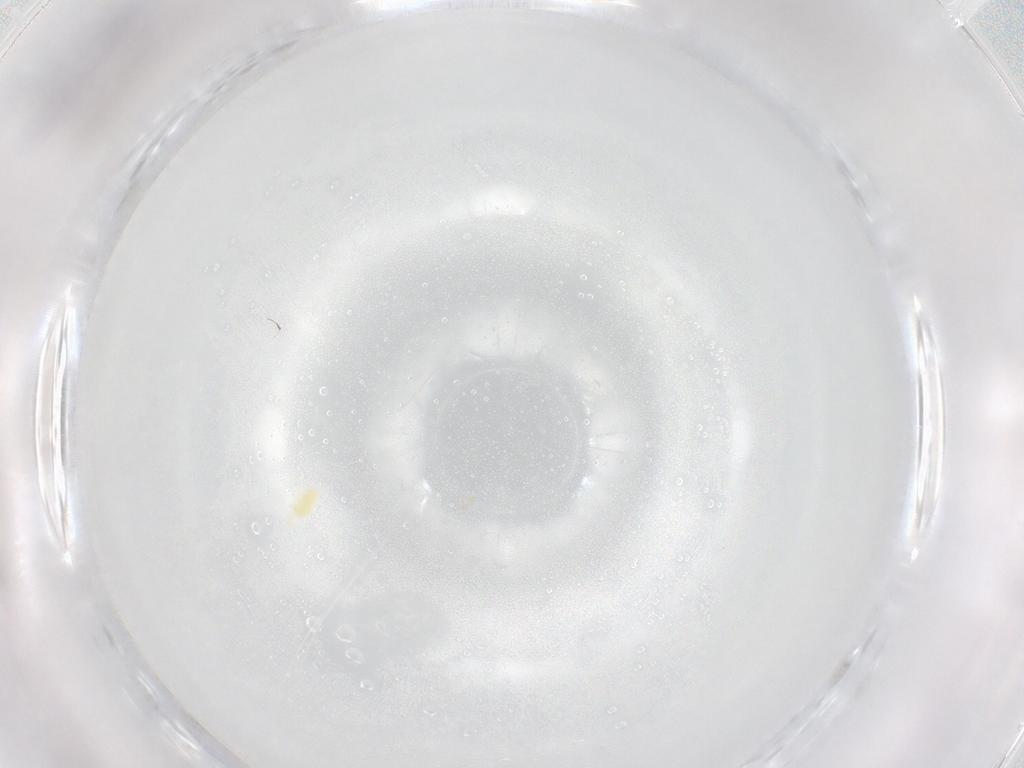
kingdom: Animalia
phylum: Arthropoda
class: Arachnida
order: Trombidiformes
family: Eupodidae
